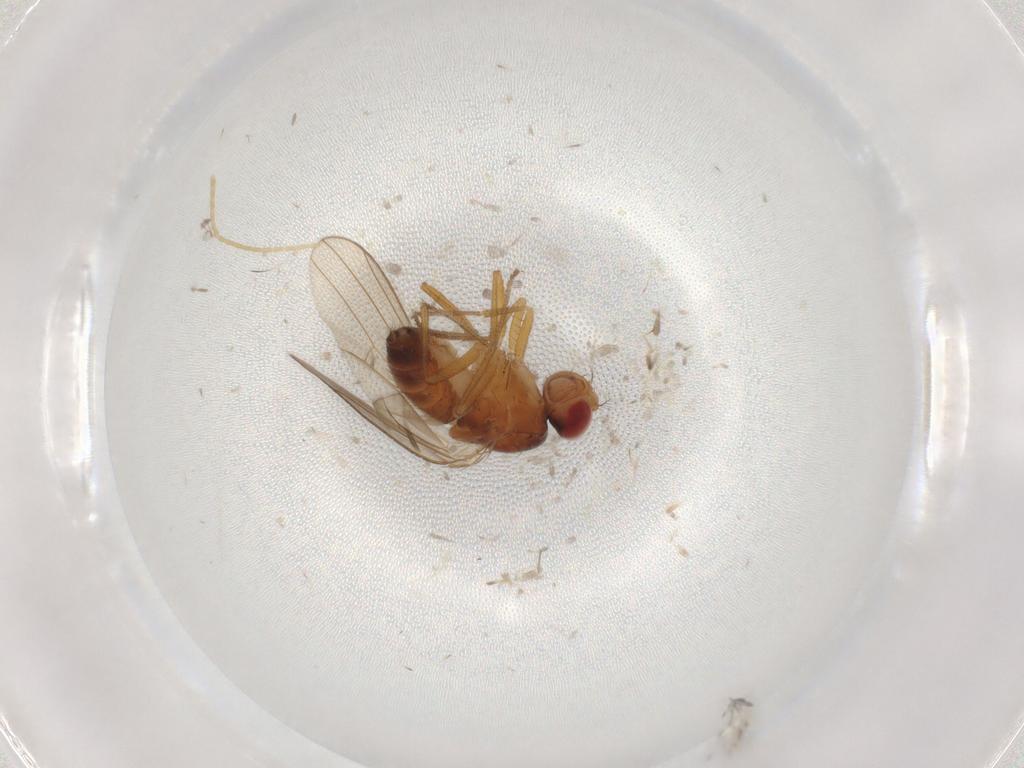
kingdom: Animalia
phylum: Arthropoda
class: Insecta
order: Diptera
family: Drosophilidae
